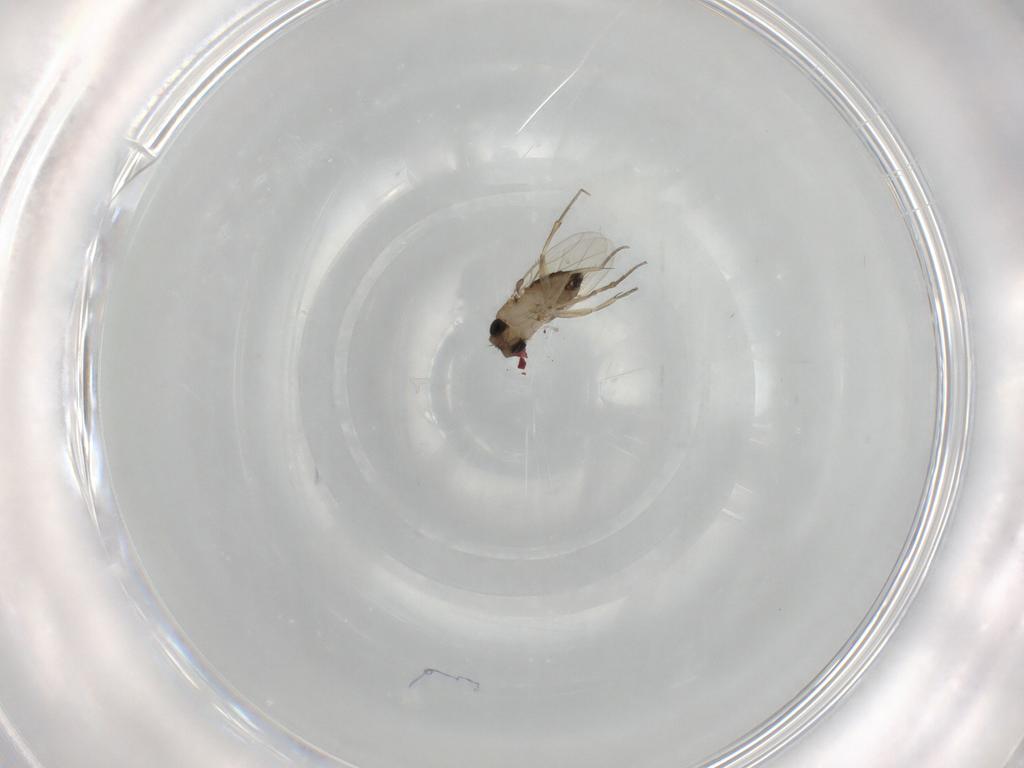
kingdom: Animalia
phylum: Arthropoda
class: Insecta
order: Diptera
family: Phoridae
